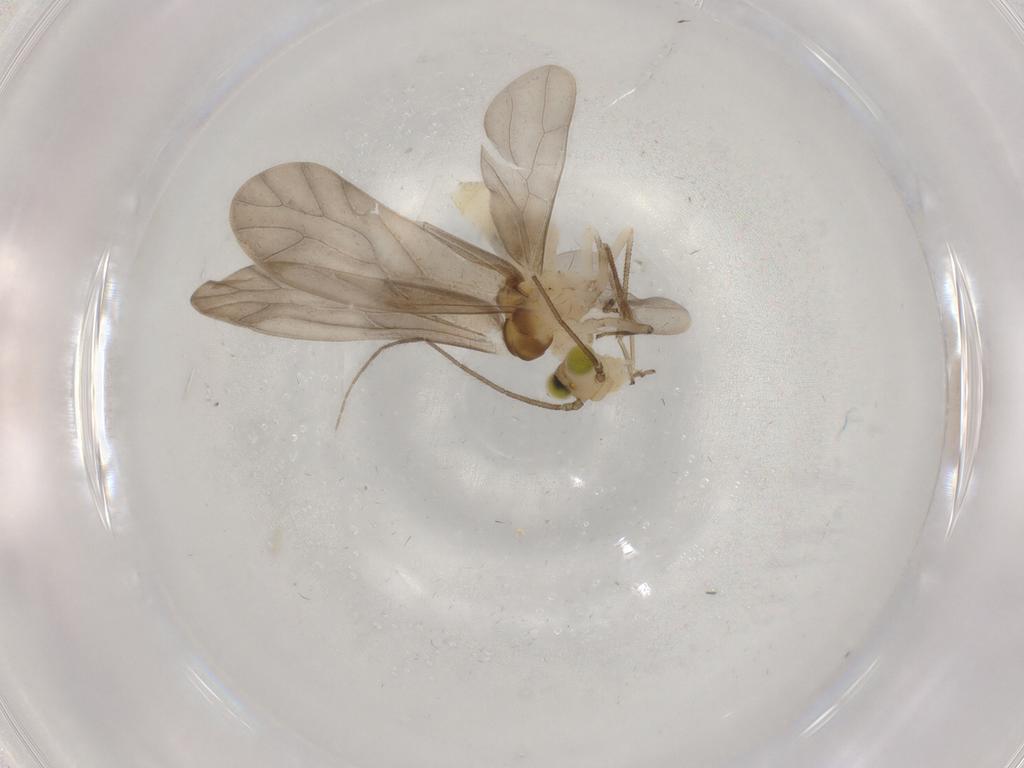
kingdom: Animalia
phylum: Arthropoda
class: Insecta
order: Psocodea
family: Caeciliusidae
